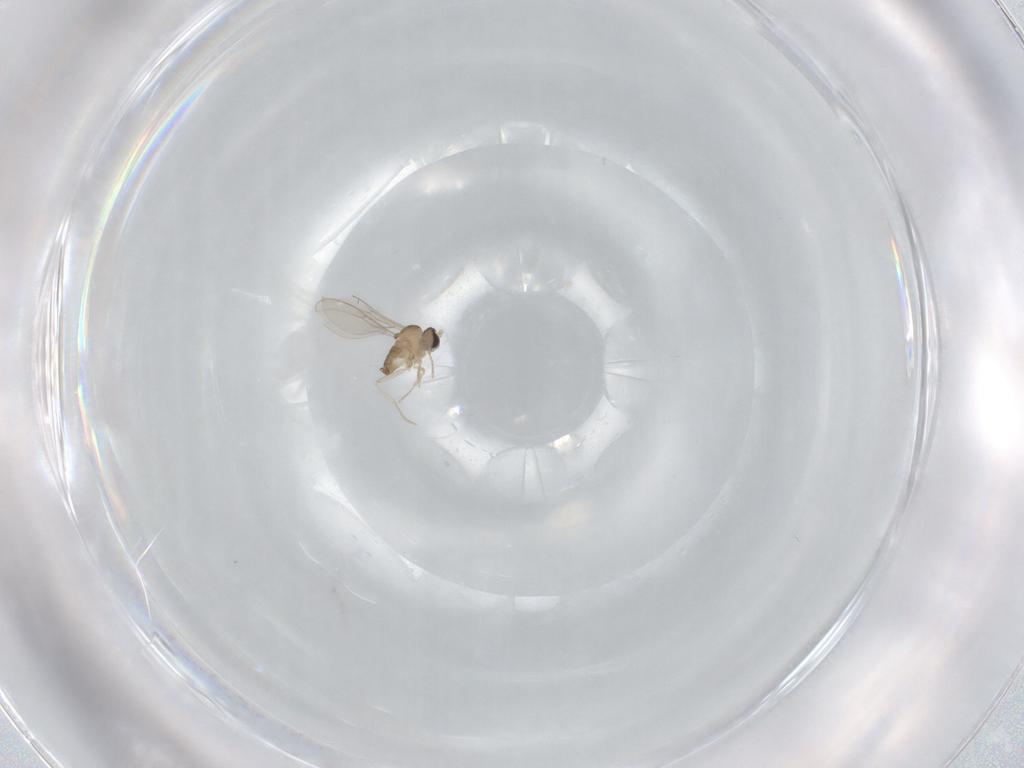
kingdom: Animalia
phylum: Arthropoda
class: Insecta
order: Diptera
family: Cecidomyiidae
